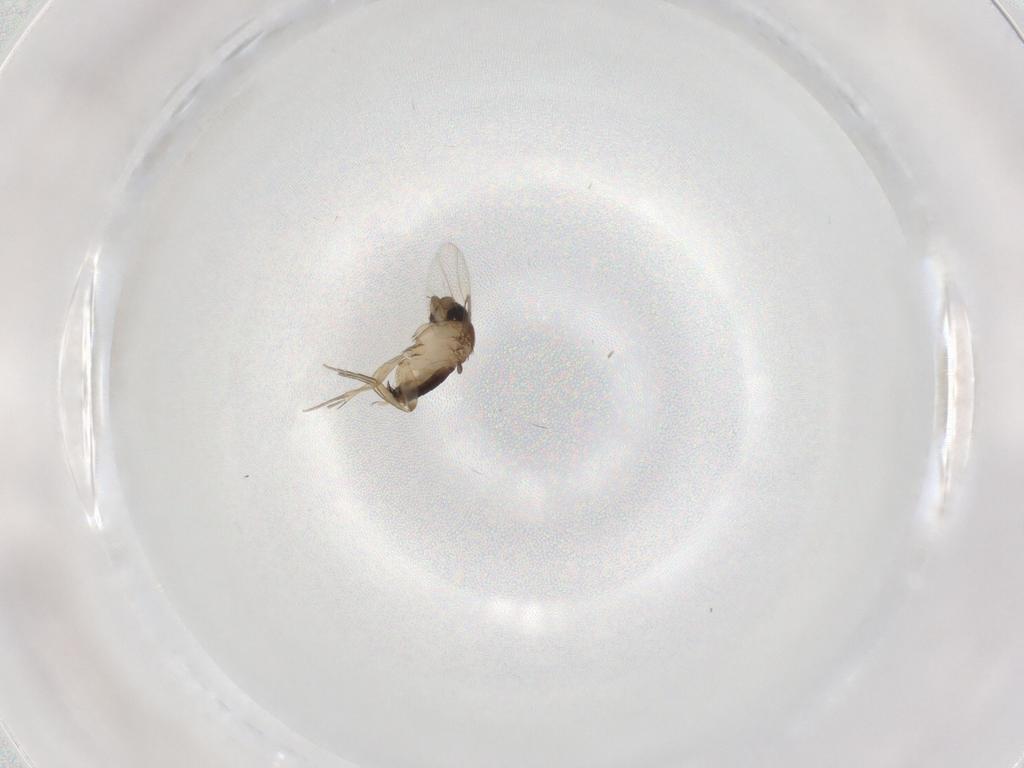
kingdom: Animalia
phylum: Arthropoda
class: Insecta
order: Diptera
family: Phoridae
